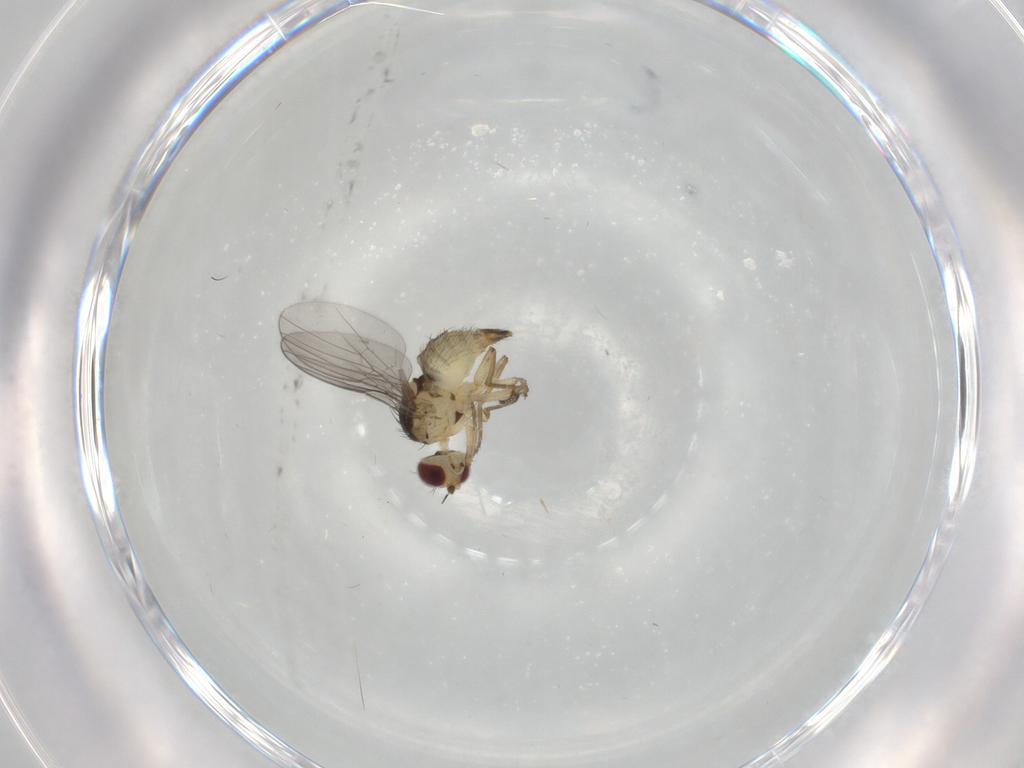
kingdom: Animalia
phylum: Arthropoda
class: Insecta
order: Diptera
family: Agromyzidae
